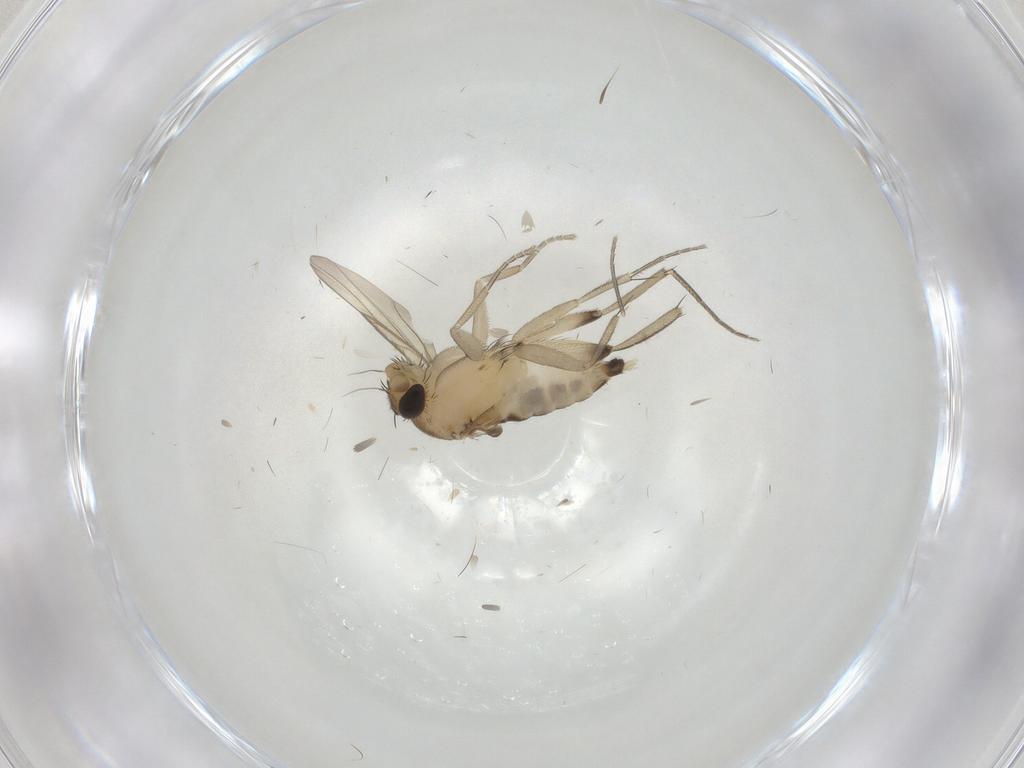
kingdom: Animalia
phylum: Arthropoda
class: Insecta
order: Diptera
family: Phoridae
